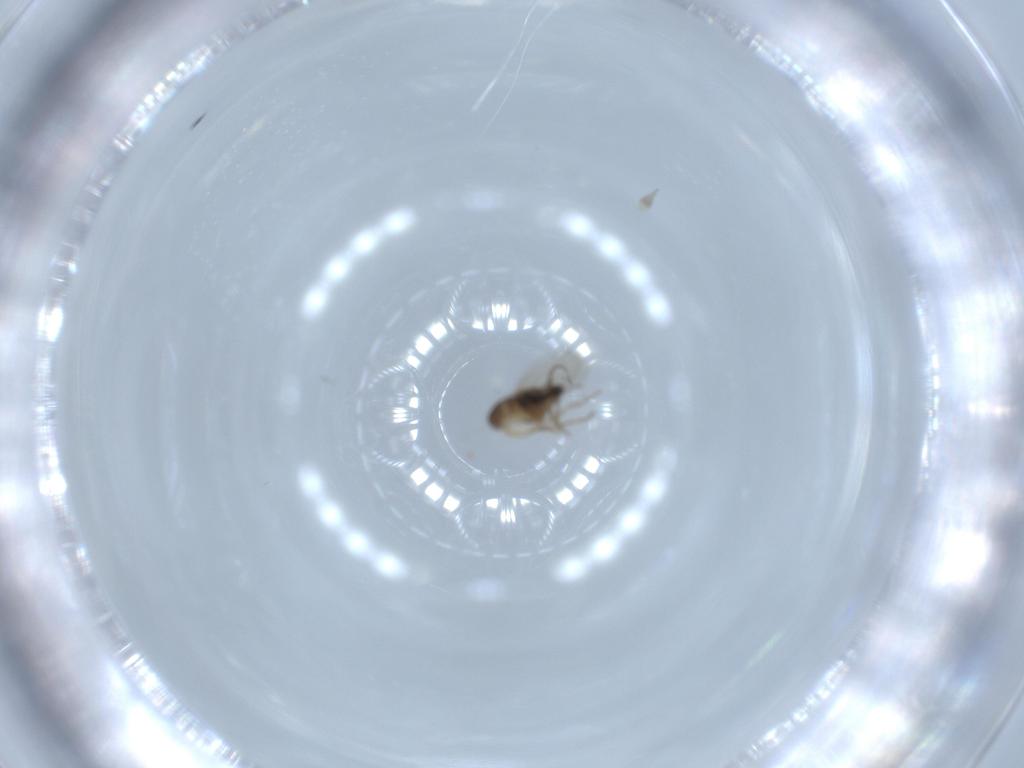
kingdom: Animalia
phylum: Arthropoda
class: Insecta
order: Diptera
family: Phoridae
